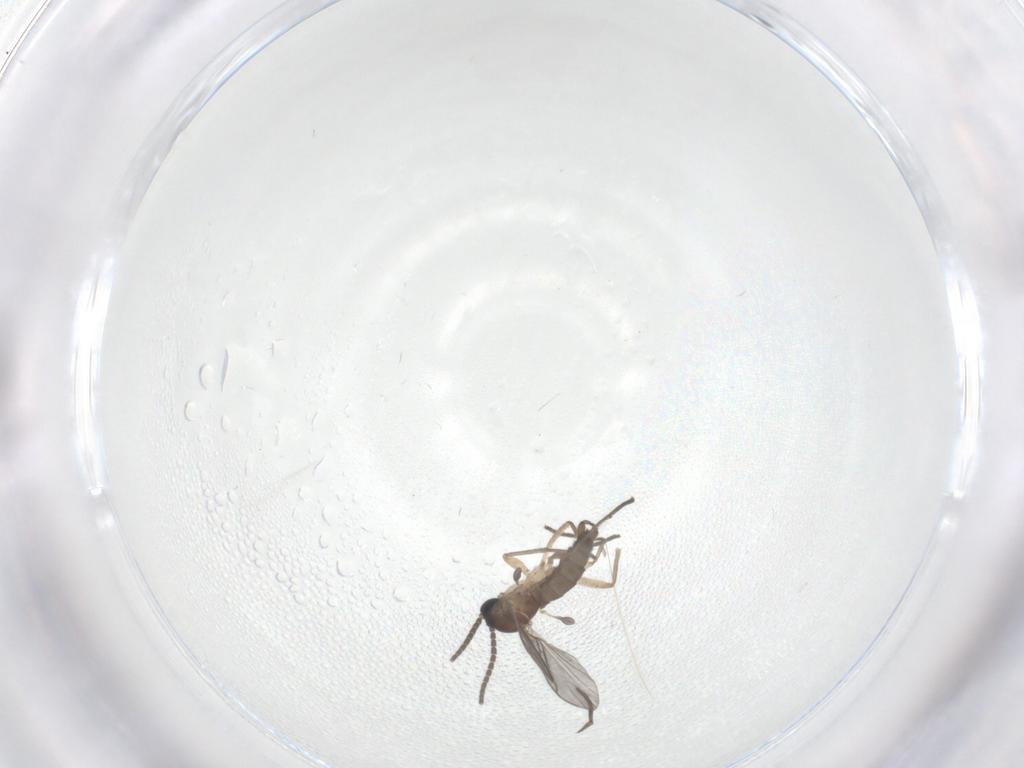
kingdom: Animalia
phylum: Arthropoda
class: Insecta
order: Diptera
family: Sciaridae
